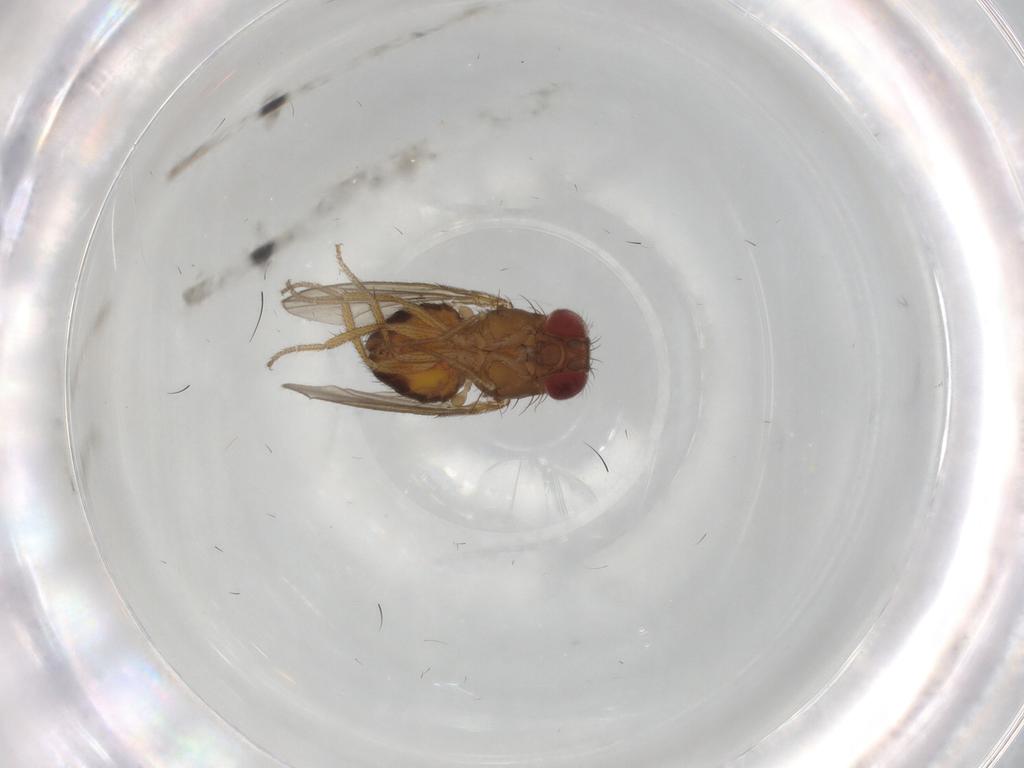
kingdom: Animalia
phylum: Arthropoda
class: Insecta
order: Diptera
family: Drosophilidae
